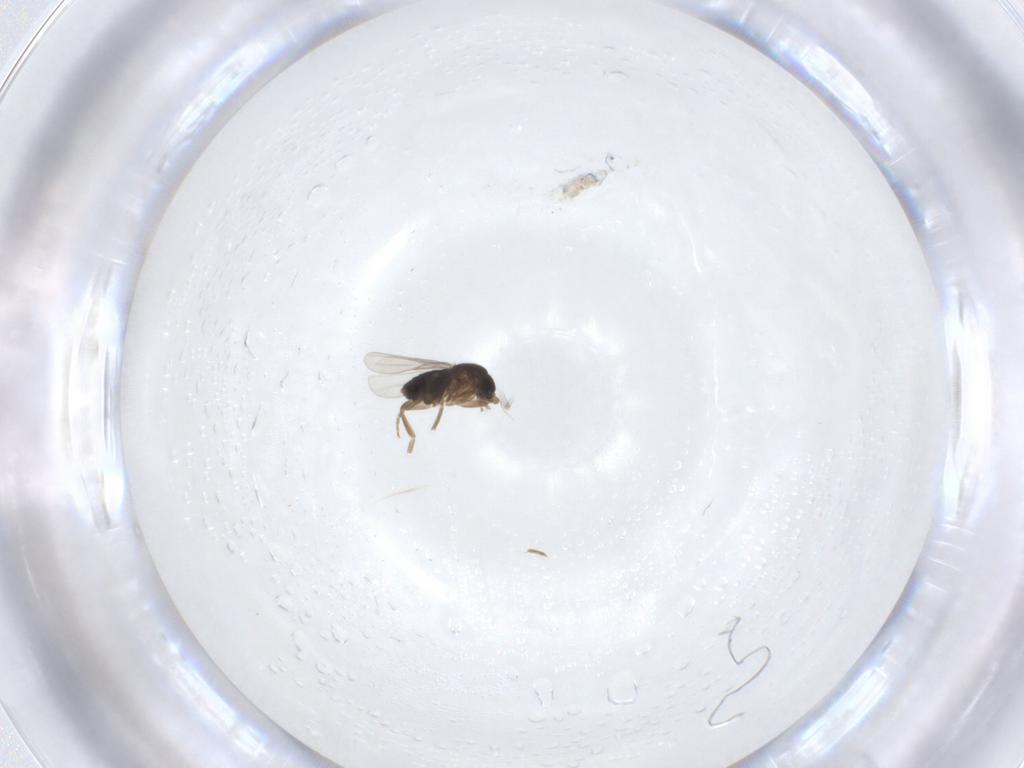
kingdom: Animalia
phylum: Arthropoda
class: Insecta
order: Diptera
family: Phoridae
